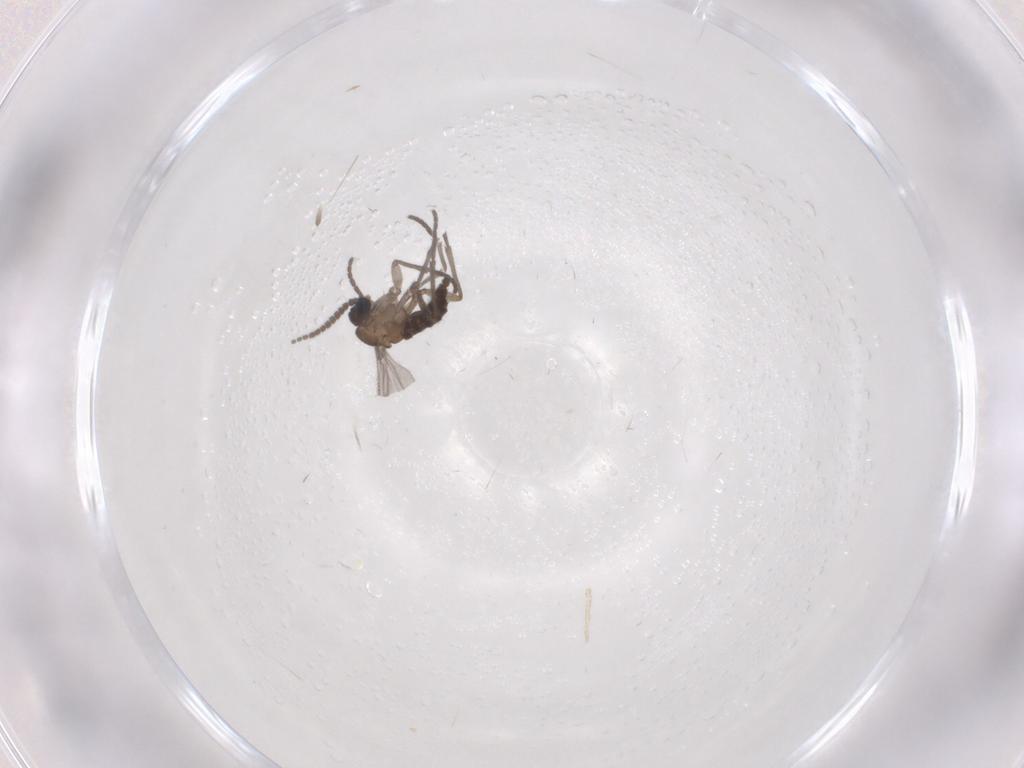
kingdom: Animalia
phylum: Arthropoda
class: Insecta
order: Diptera
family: Sciaridae
